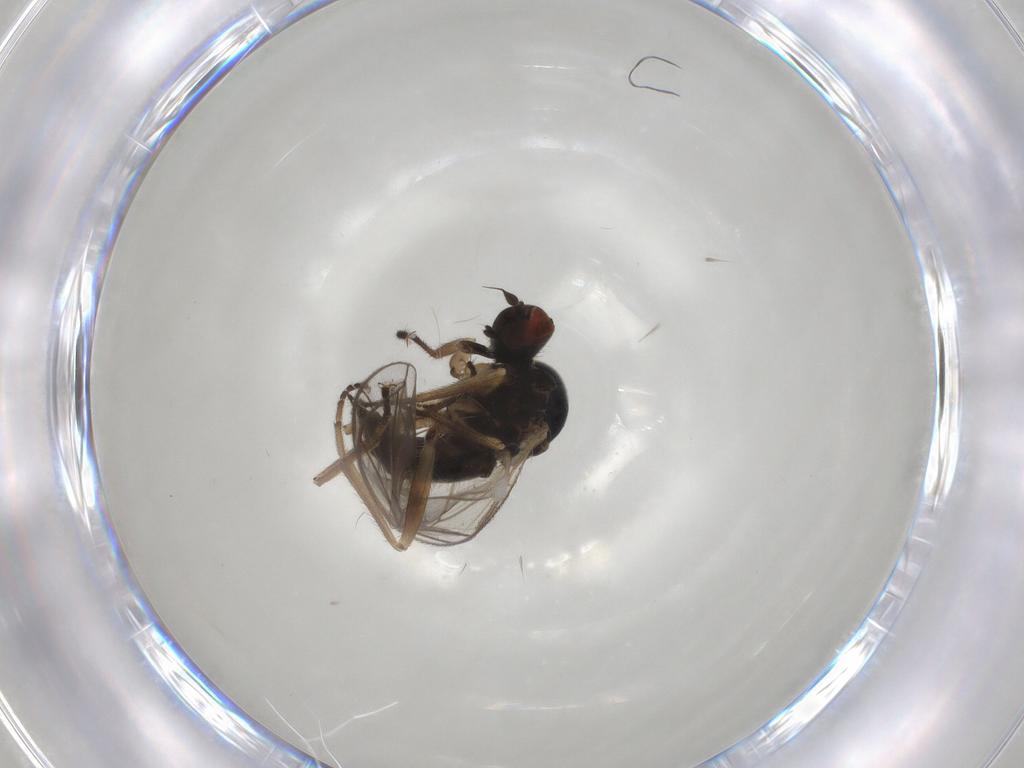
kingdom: Animalia
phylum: Arthropoda
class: Insecta
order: Diptera
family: Hybotidae
